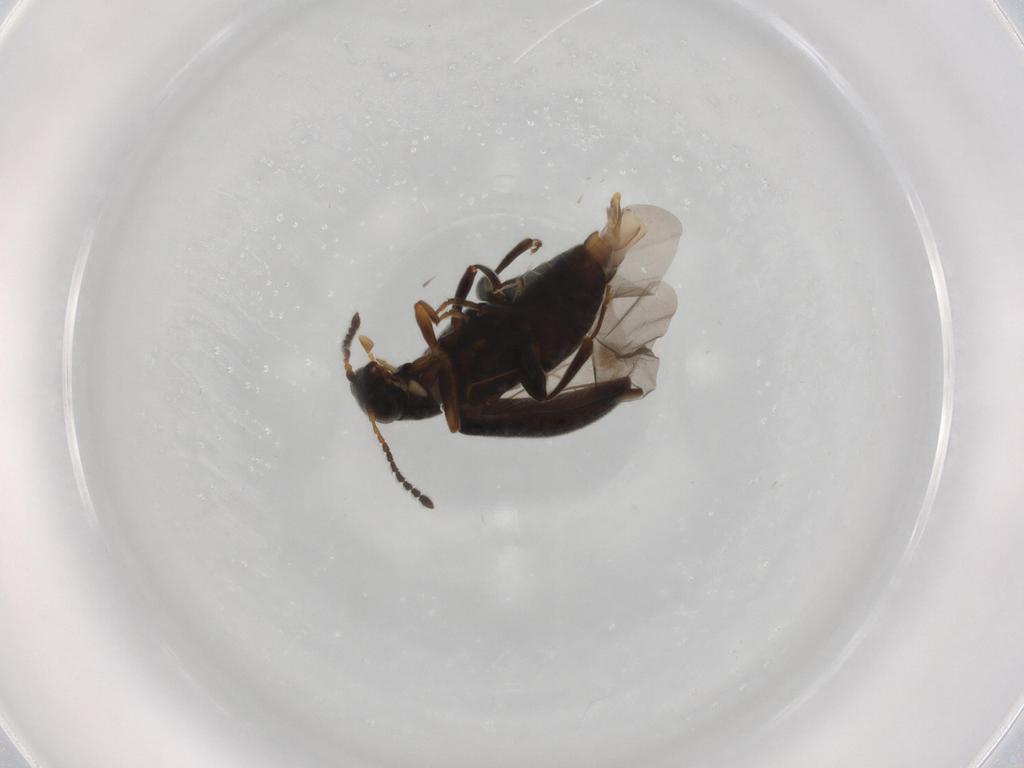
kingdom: Animalia
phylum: Arthropoda
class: Insecta
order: Coleoptera
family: Aderidae
